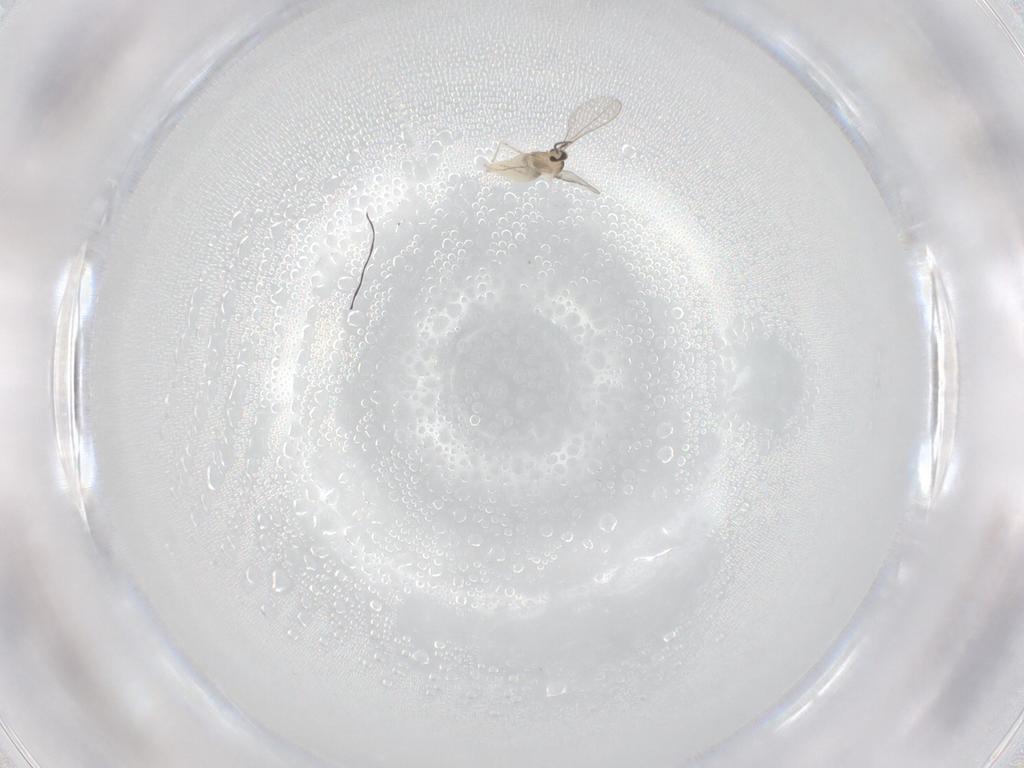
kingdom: Animalia
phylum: Arthropoda
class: Insecta
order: Diptera
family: Cecidomyiidae
